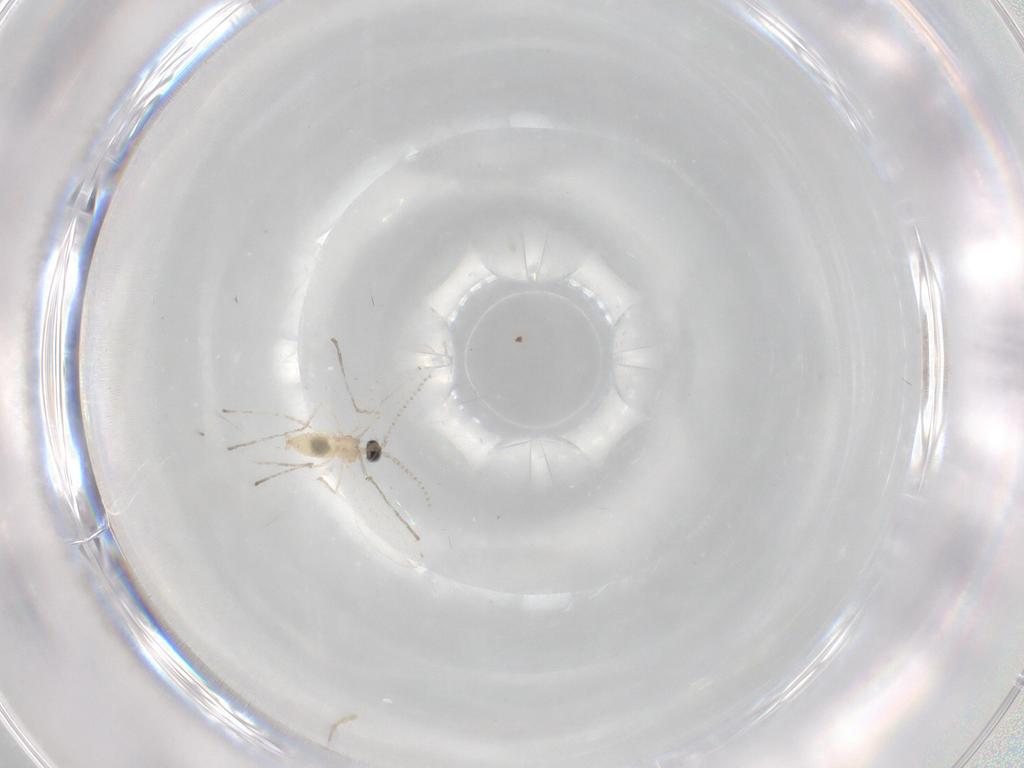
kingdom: Animalia
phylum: Arthropoda
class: Insecta
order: Diptera
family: Cecidomyiidae
